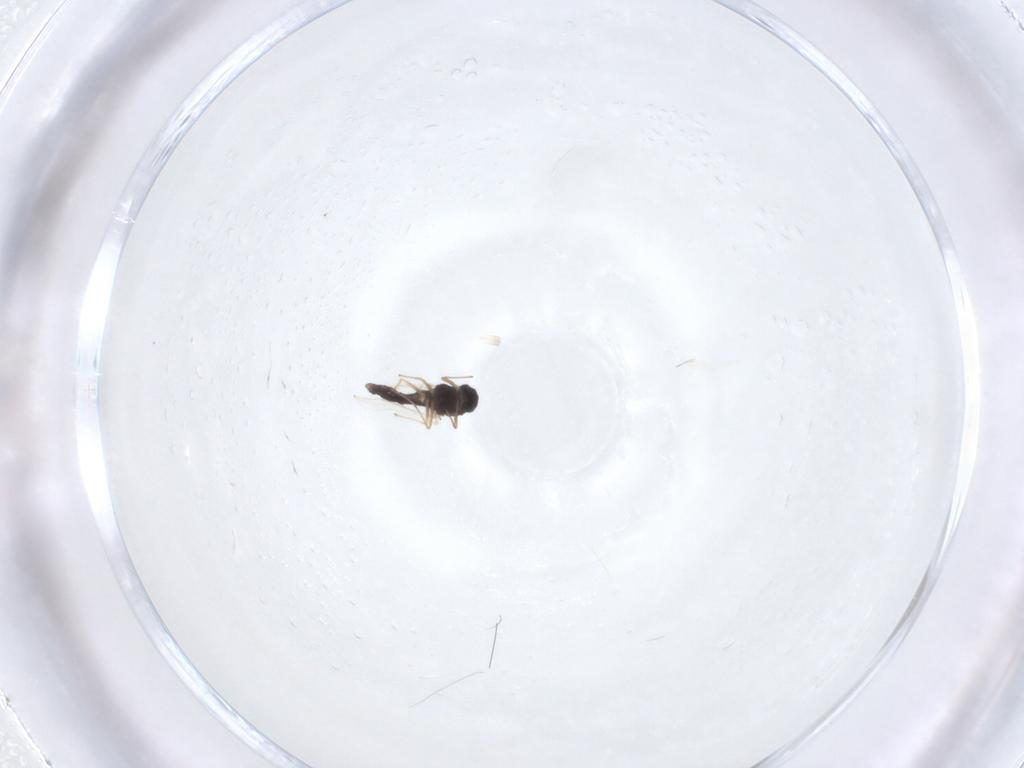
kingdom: Animalia
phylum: Arthropoda
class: Insecta
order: Diptera
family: Chironomidae
